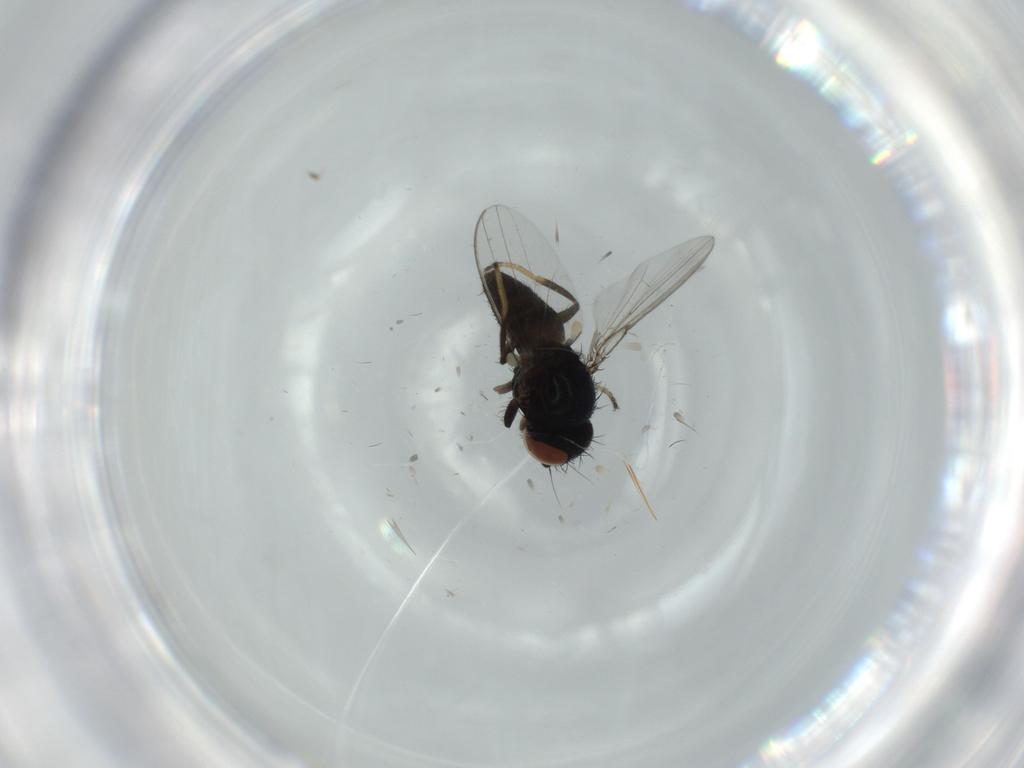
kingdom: Animalia
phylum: Arthropoda
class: Insecta
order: Diptera
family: Milichiidae
